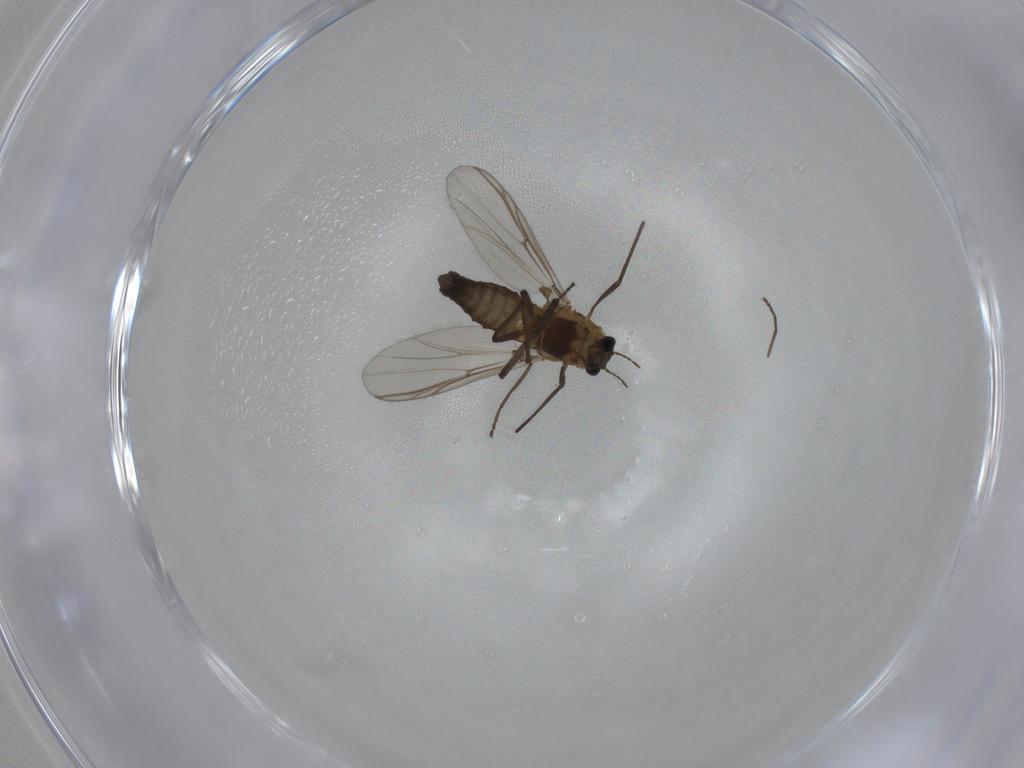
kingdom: Animalia
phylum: Arthropoda
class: Insecta
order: Diptera
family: Chironomidae
